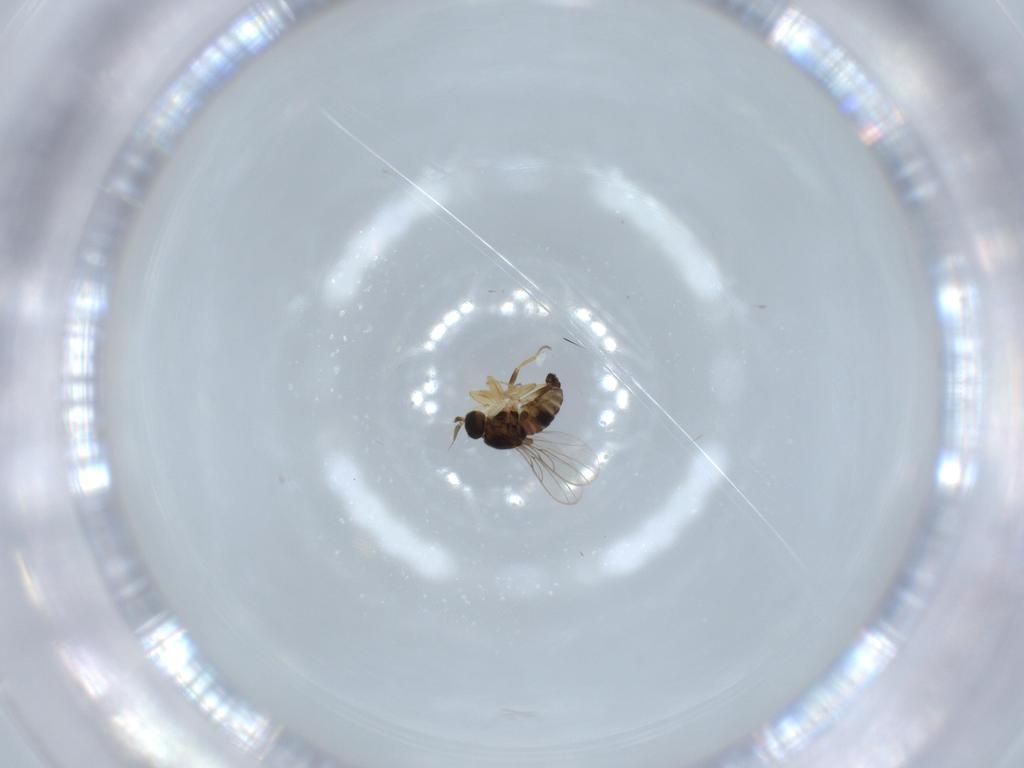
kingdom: Animalia
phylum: Arthropoda
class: Insecta
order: Diptera
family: Hybotidae
